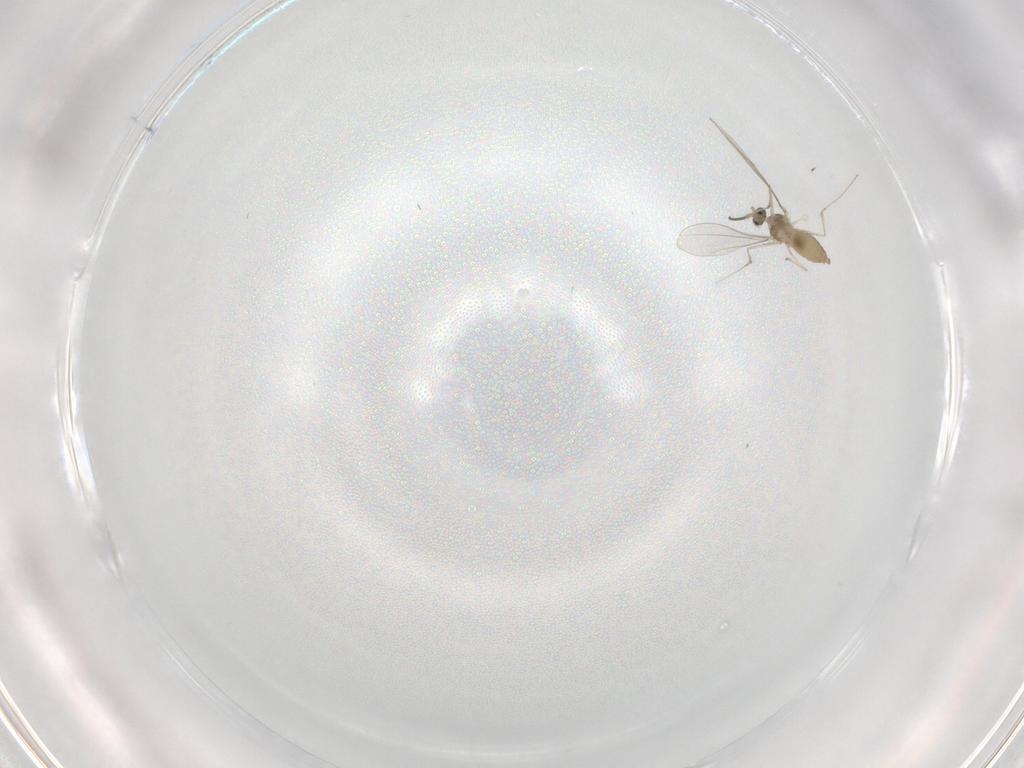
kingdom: Animalia
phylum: Arthropoda
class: Insecta
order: Diptera
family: Cecidomyiidae
